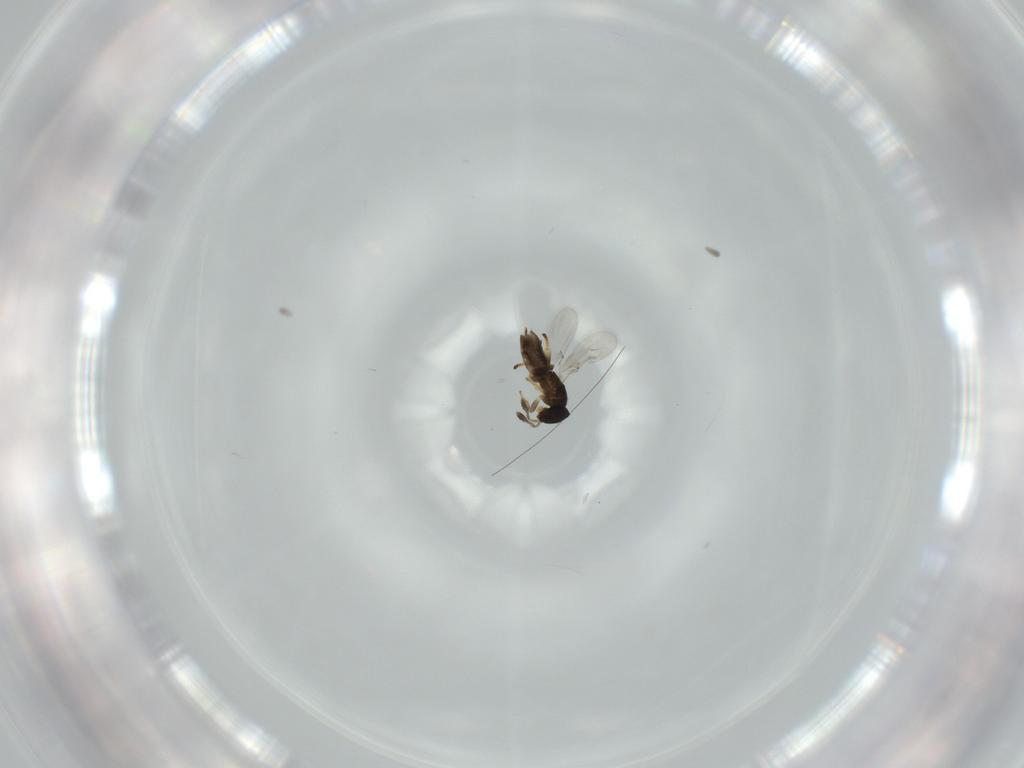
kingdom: Animalia
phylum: Arthropoda
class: Insecta
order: Hymenoptera
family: Encyrtidae
